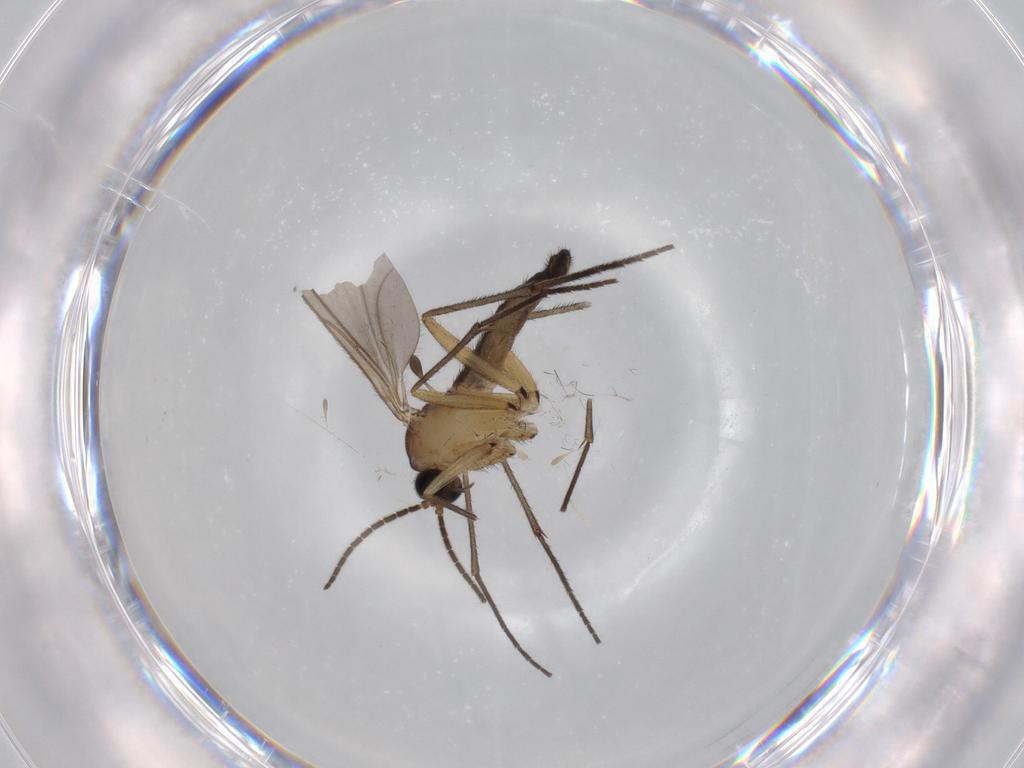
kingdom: Animalia
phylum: Arthropoda
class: Insecta
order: Diptera
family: Sciaridae
